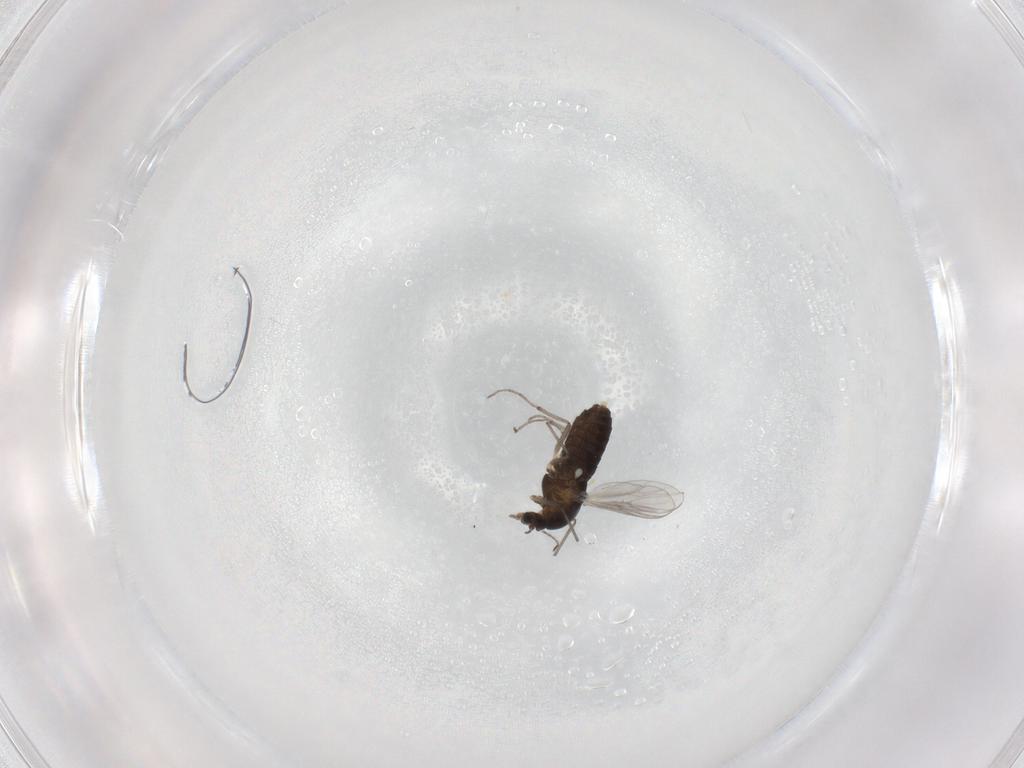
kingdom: Animalia
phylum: Arthropoda
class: Insecta
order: Diptera
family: Chironomidae
